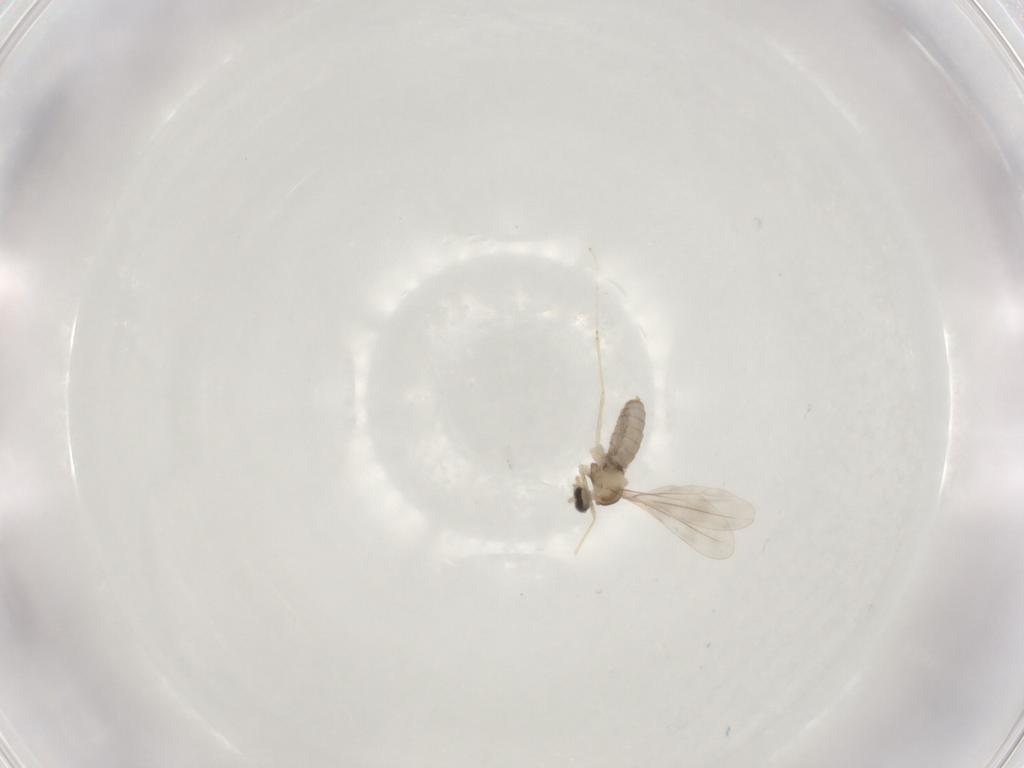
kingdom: Animalia
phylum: Arthropoda
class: Insecta
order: Diptera
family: Cecidomyiidae
